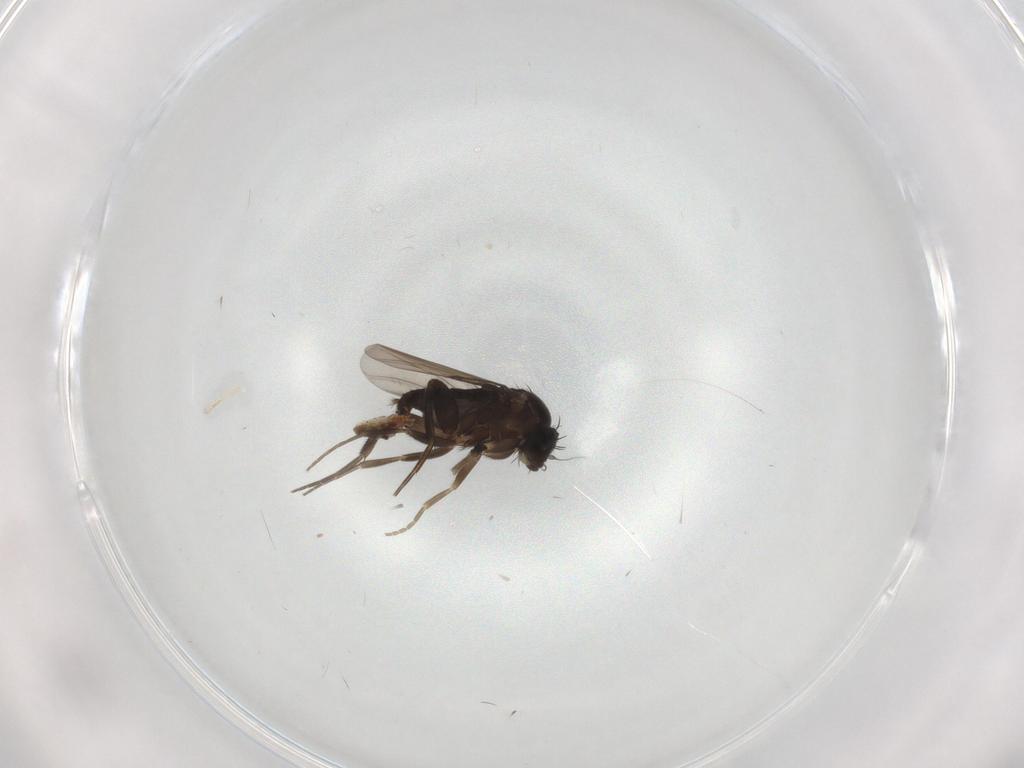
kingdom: Animalia
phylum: Arthropoda
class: Insecta
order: Diptera
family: Phoridae
